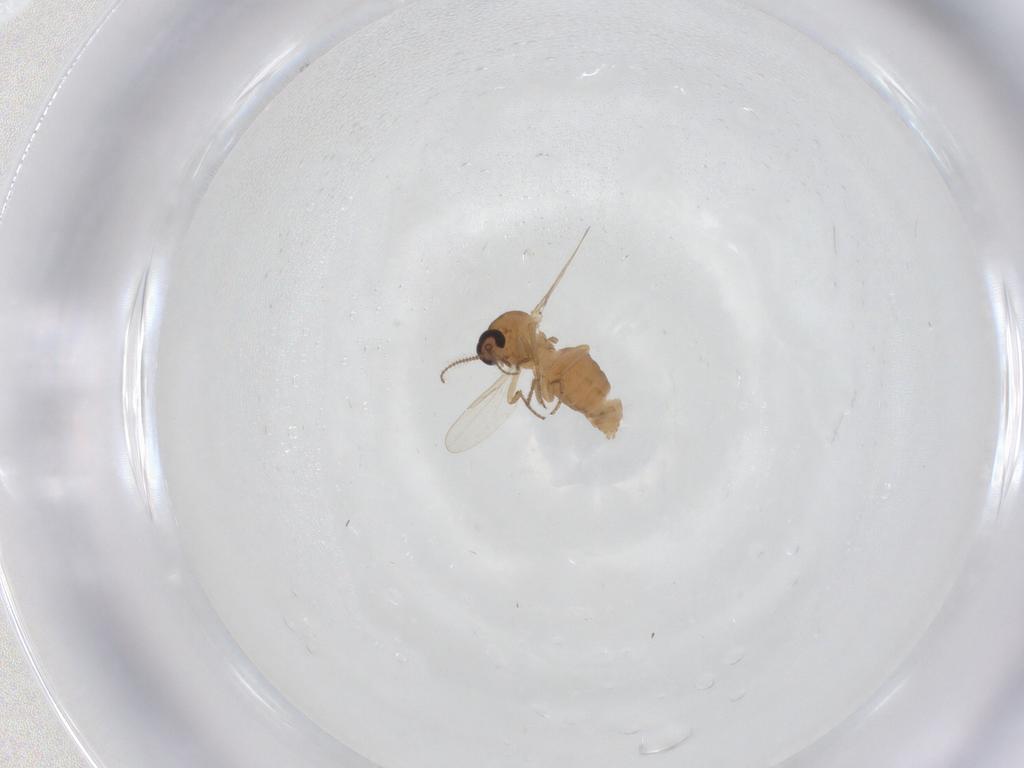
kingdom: Animalia
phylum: Arthropoda
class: Insecta
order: Diptera
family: Ceratopogonidae
